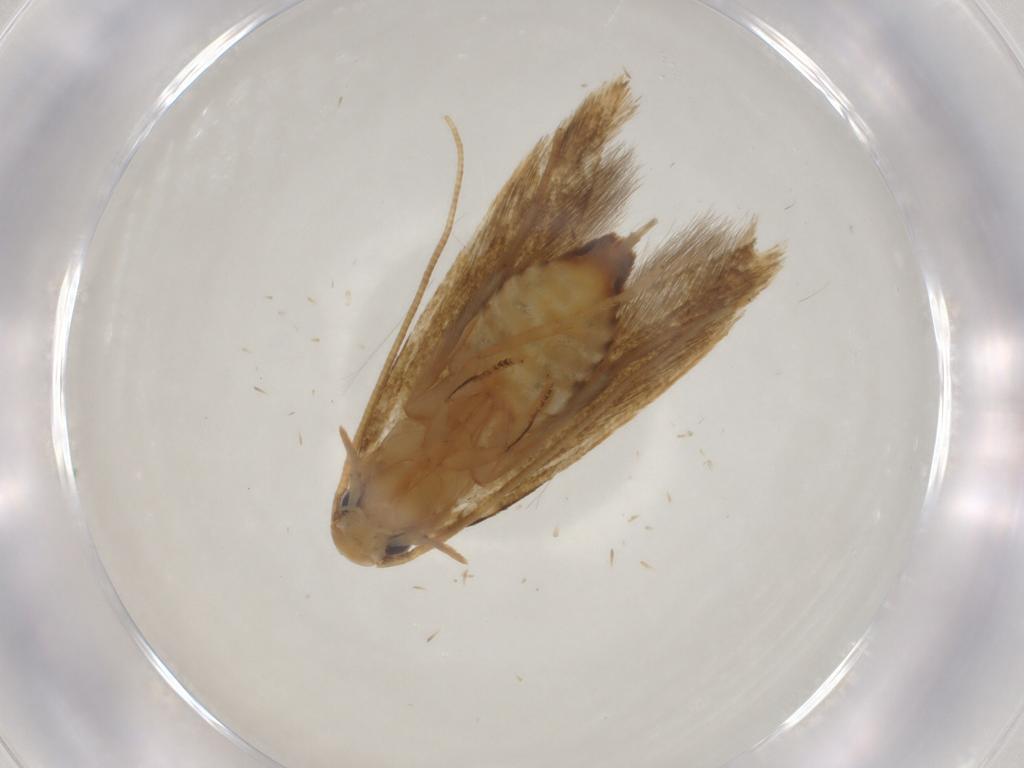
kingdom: Animalia
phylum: Arthropoda
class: Insecta
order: Lepidoptera
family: Tineidae
